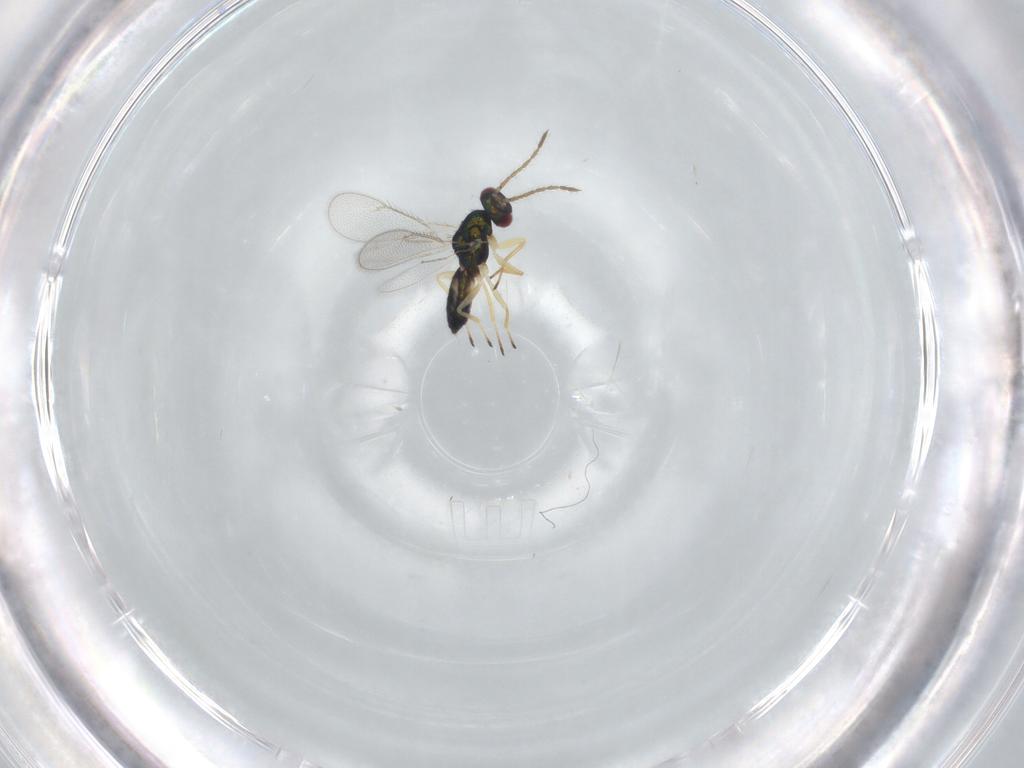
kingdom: Animalia
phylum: Arthropoda
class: Insecta
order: Hymenoptera
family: Eulophidae
